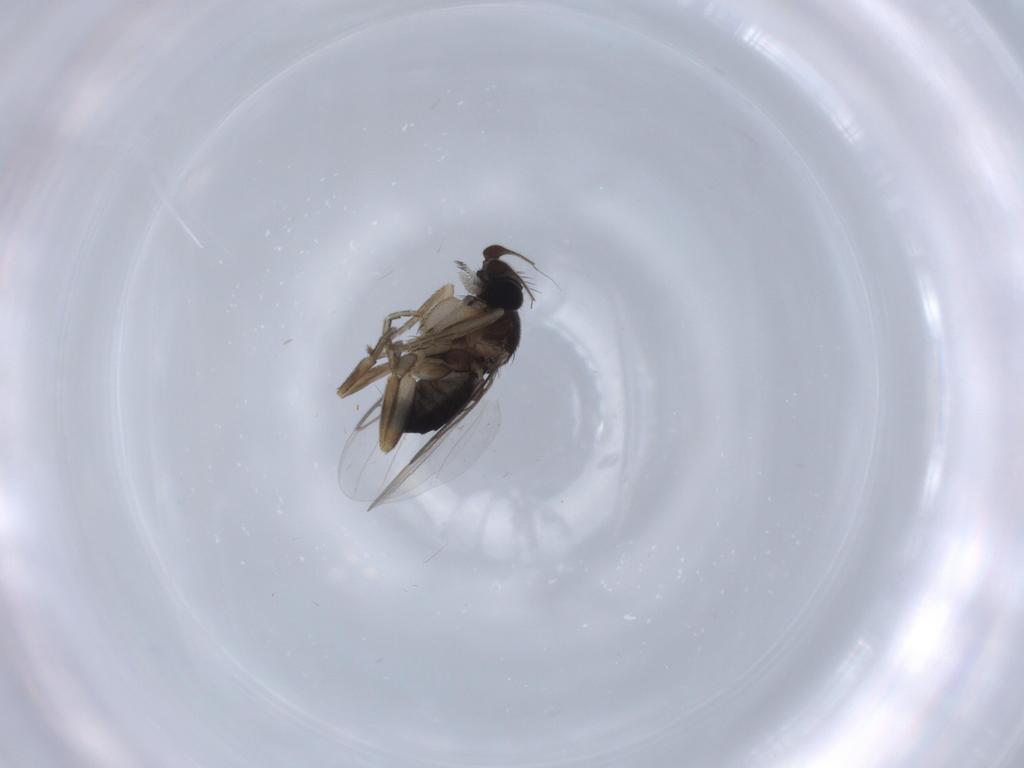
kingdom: Animalia
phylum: Arthropoda
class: Insecta
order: Diptera
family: Phoridae
